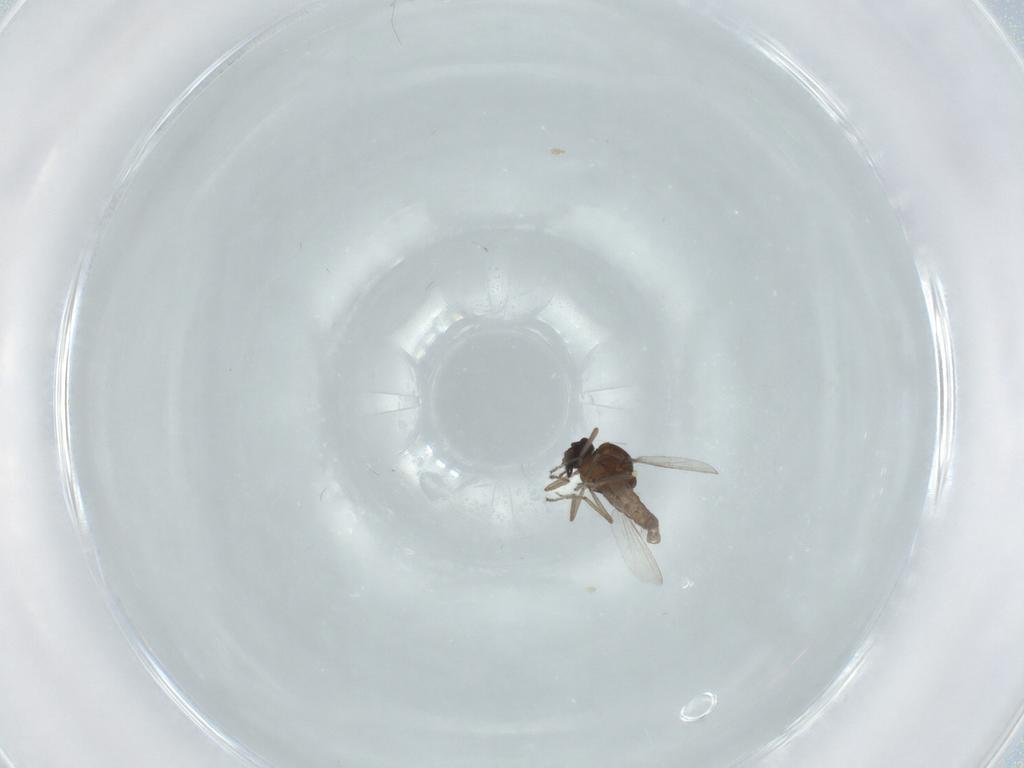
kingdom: Animalia
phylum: Arthropoda
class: Insecta
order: Diptera
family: Ceratopogonidae
